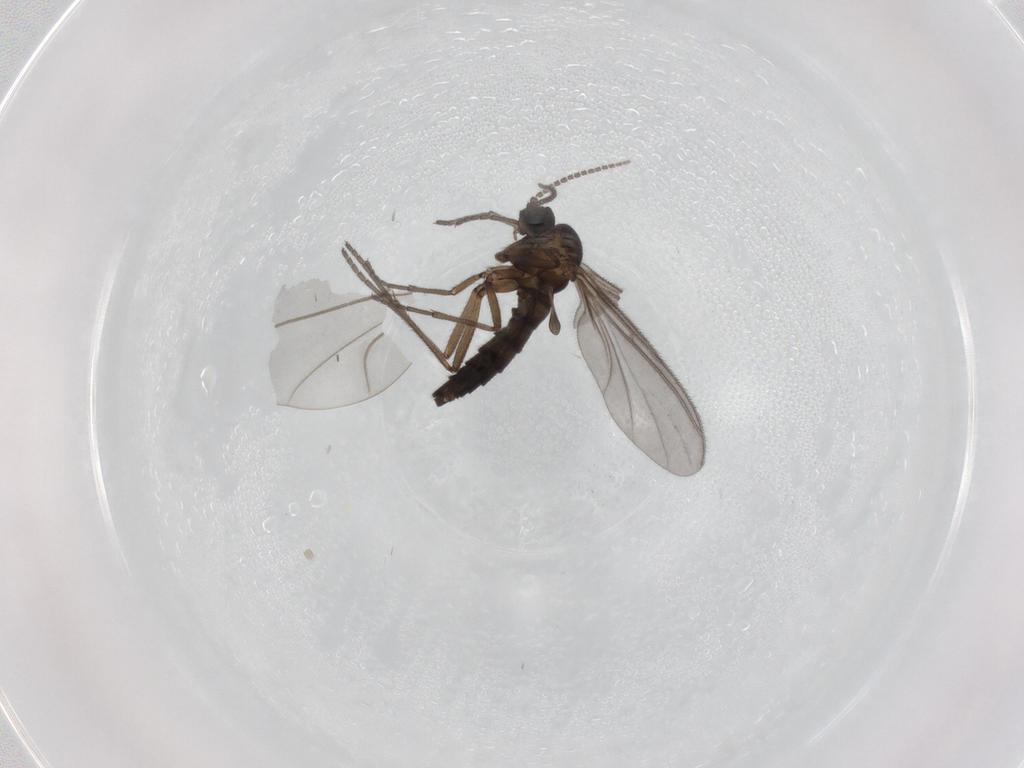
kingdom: Animalia
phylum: Arthropoda
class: Insecta
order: Diptera
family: Sciaridae
